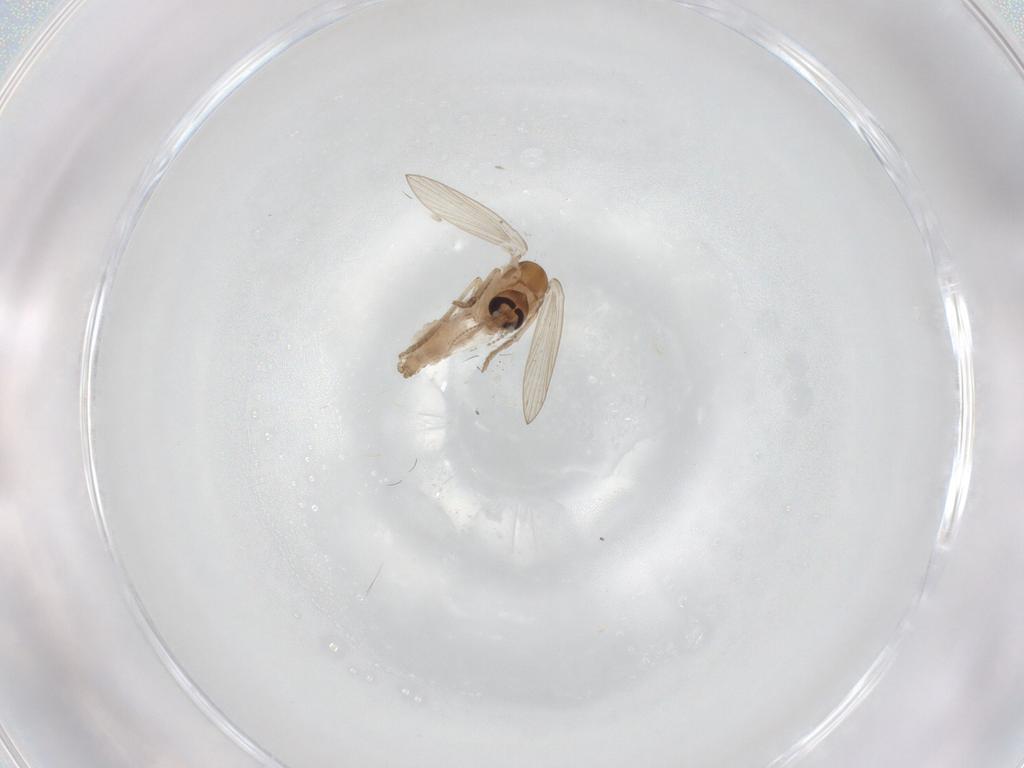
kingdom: Animalia
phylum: Arthropoda
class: Insecta
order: Diptera
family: Psychodidae
